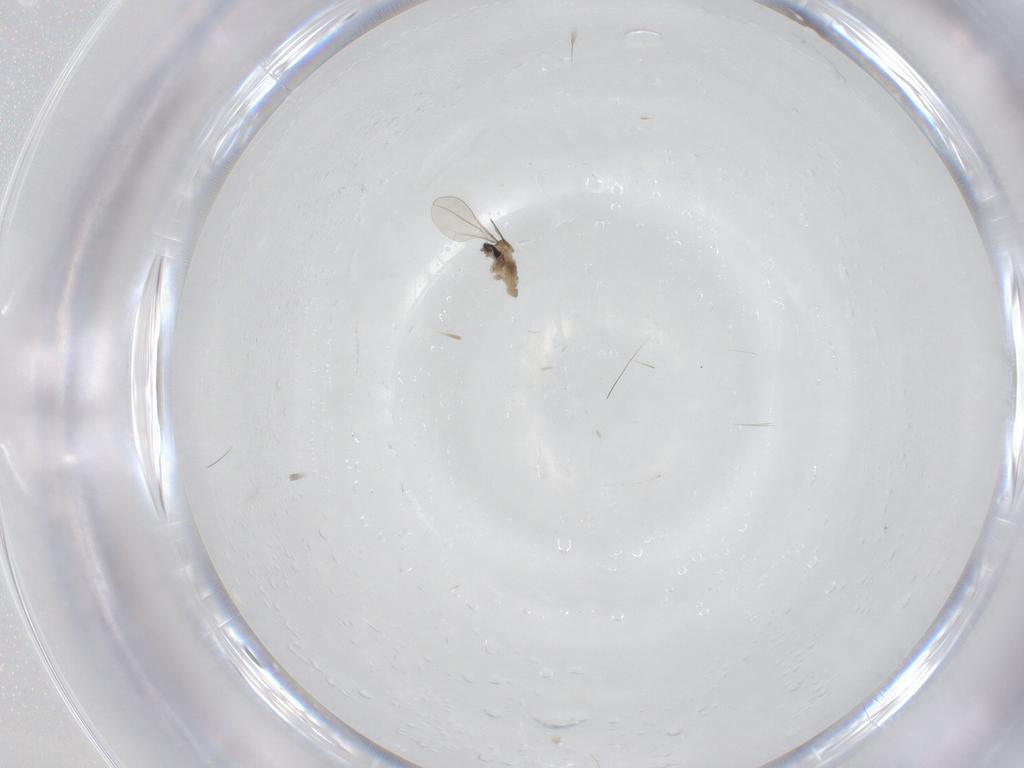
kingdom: Animalia
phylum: Arthropoda
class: Insecta
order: Diptera
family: Cecidomyiidae
